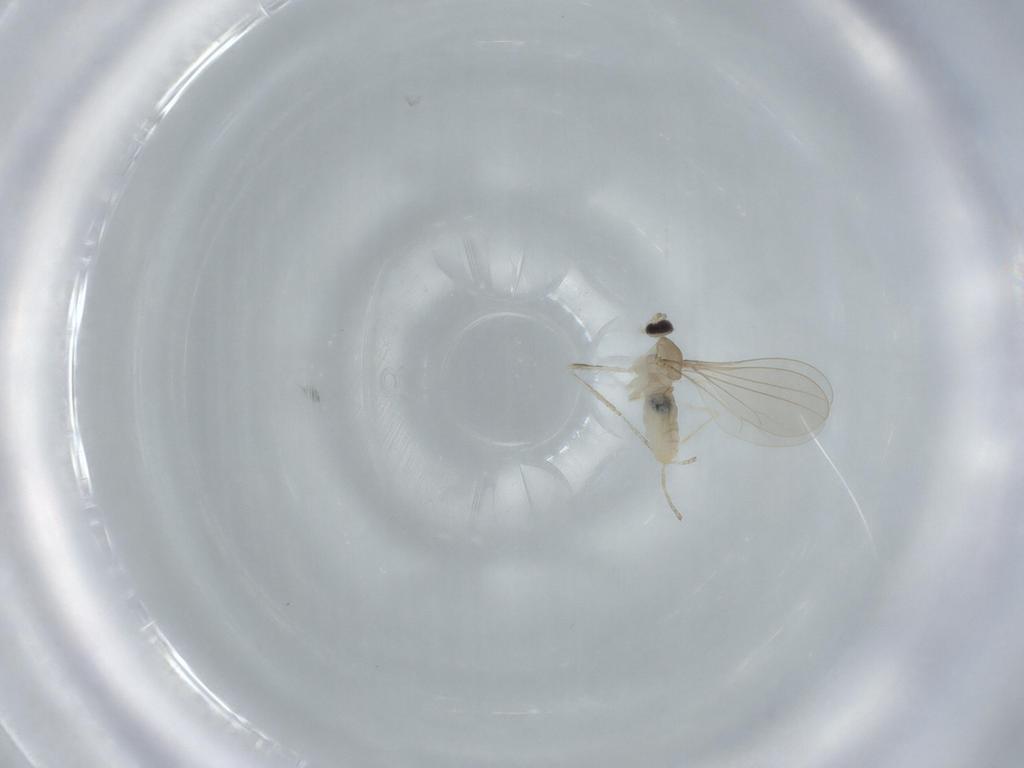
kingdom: Animalia
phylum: Arthropoda
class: Insecta
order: Diptera
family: Cecidomyiidae
